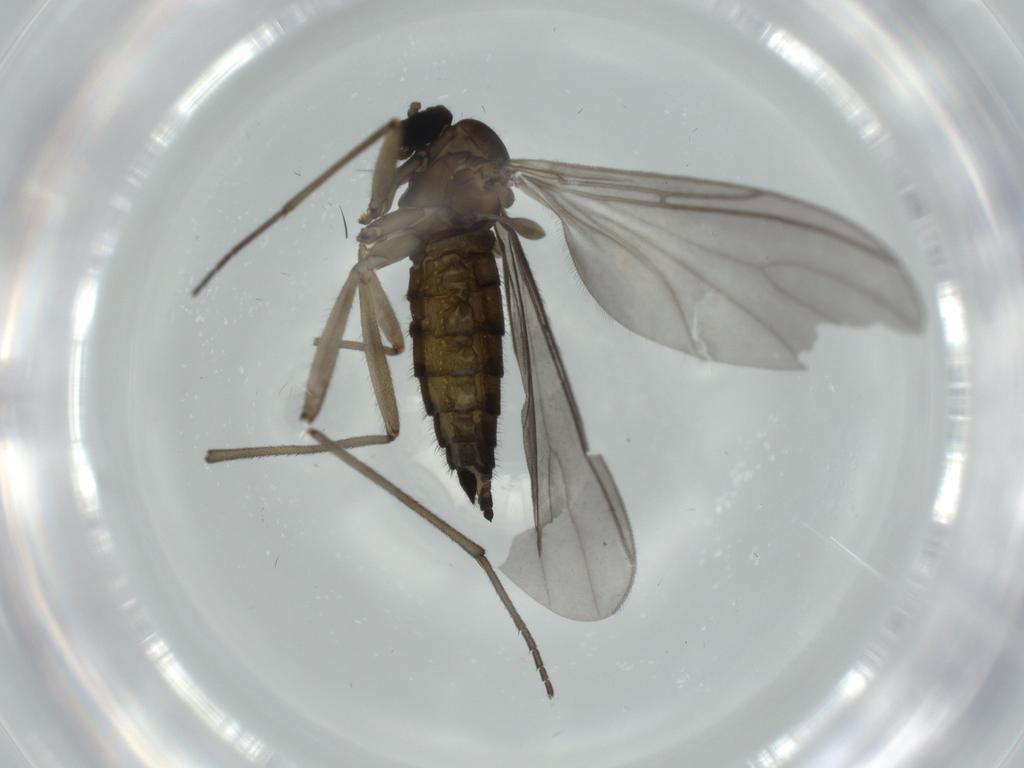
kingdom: Animalia
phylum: Arthropoda
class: Insecta
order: Diptera
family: Sciaridae
